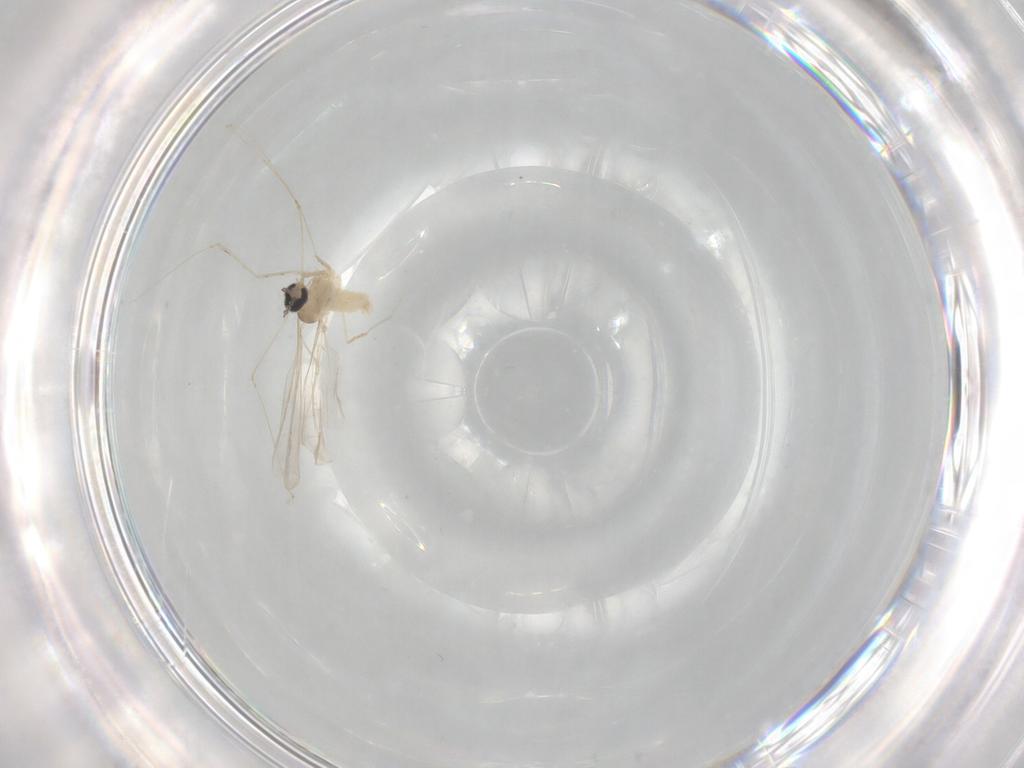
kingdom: Animalia
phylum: Arthropoda
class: Insecta
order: Diptera
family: Cecidomyiidae
